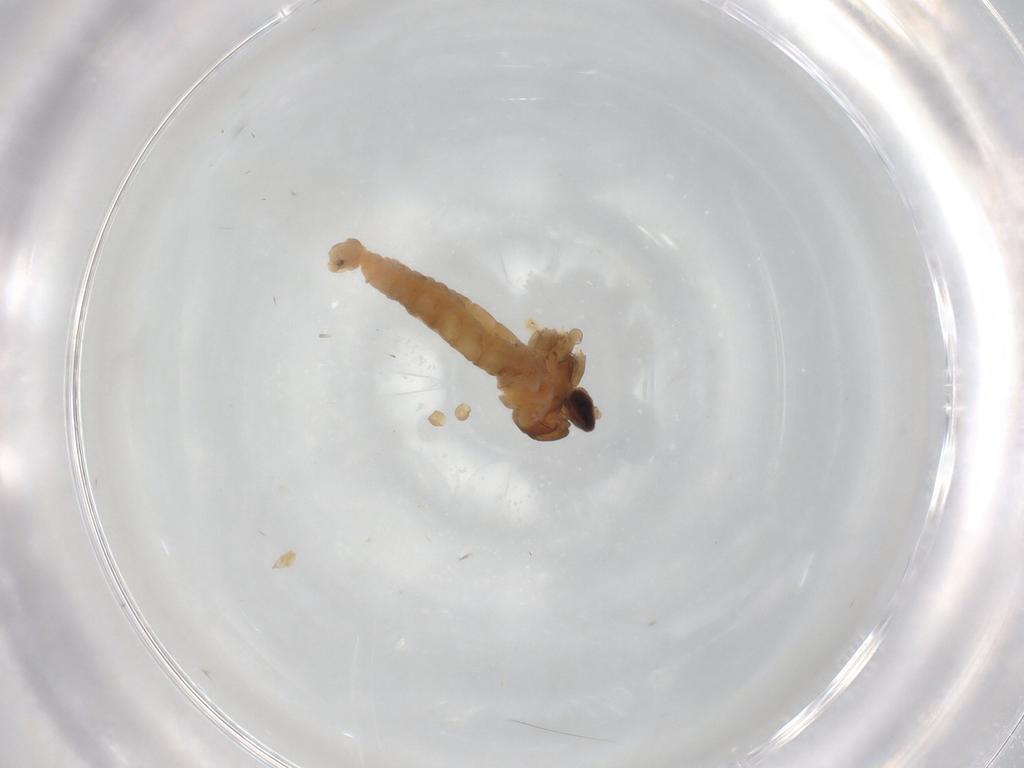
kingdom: Animalia
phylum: Arthropoda
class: Insecta
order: Diptera
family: Cecidomyiidae
